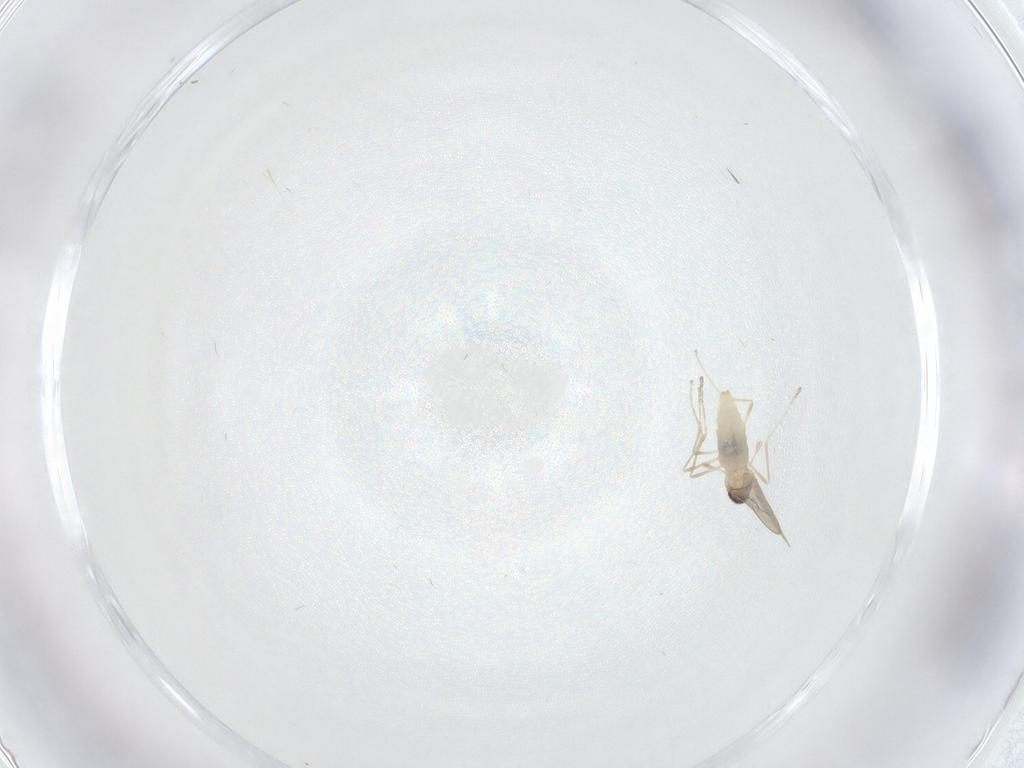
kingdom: Animalia
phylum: Arthropoda
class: Insecta
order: Diptera
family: Cecidomyiidae
